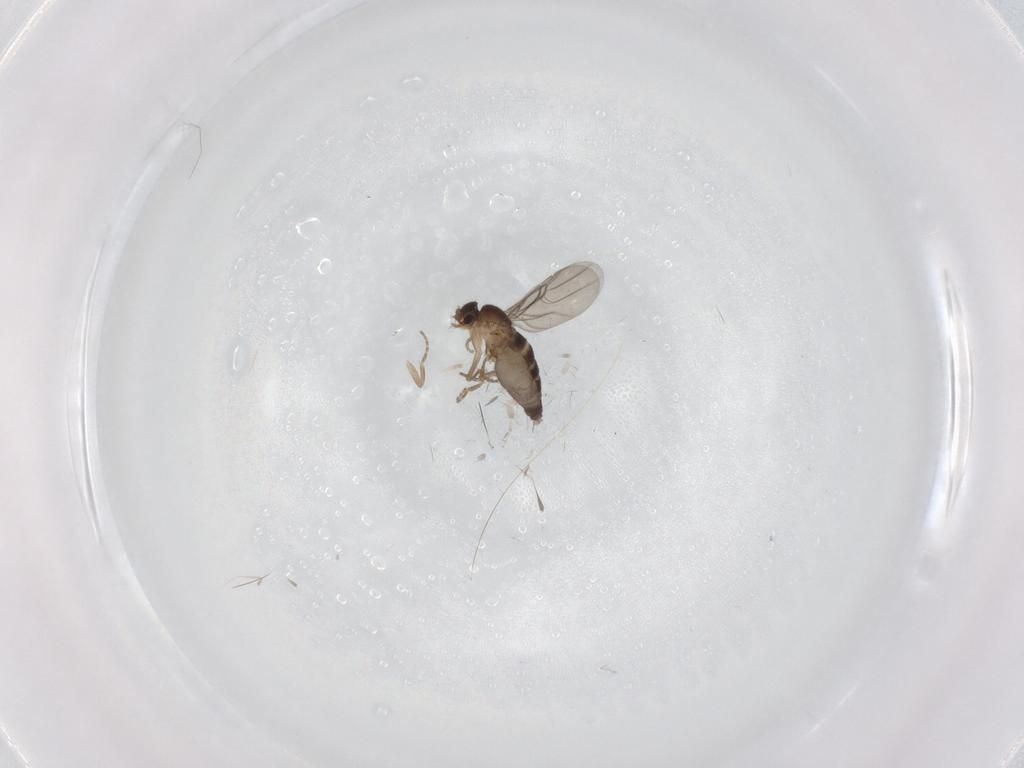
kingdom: Animalia
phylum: Arthropoda
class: Insecta
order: Diptera
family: Phoridae
